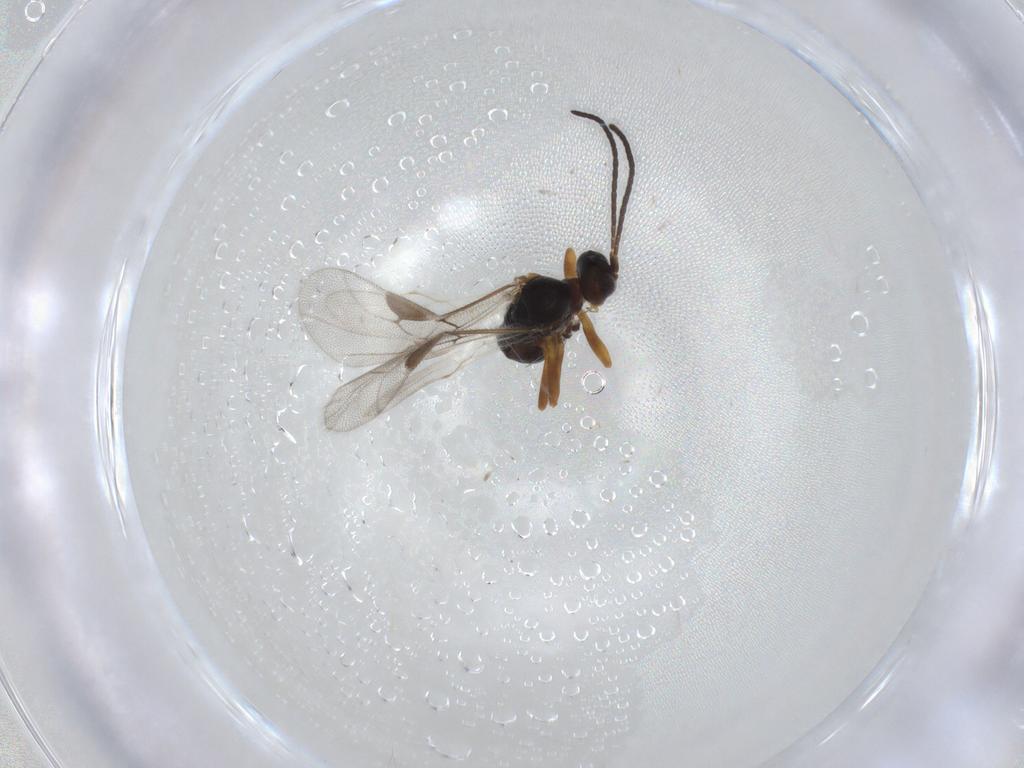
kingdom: Animalia
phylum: Arthropoda
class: Insecta
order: Hymenoptera
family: Braconidae
